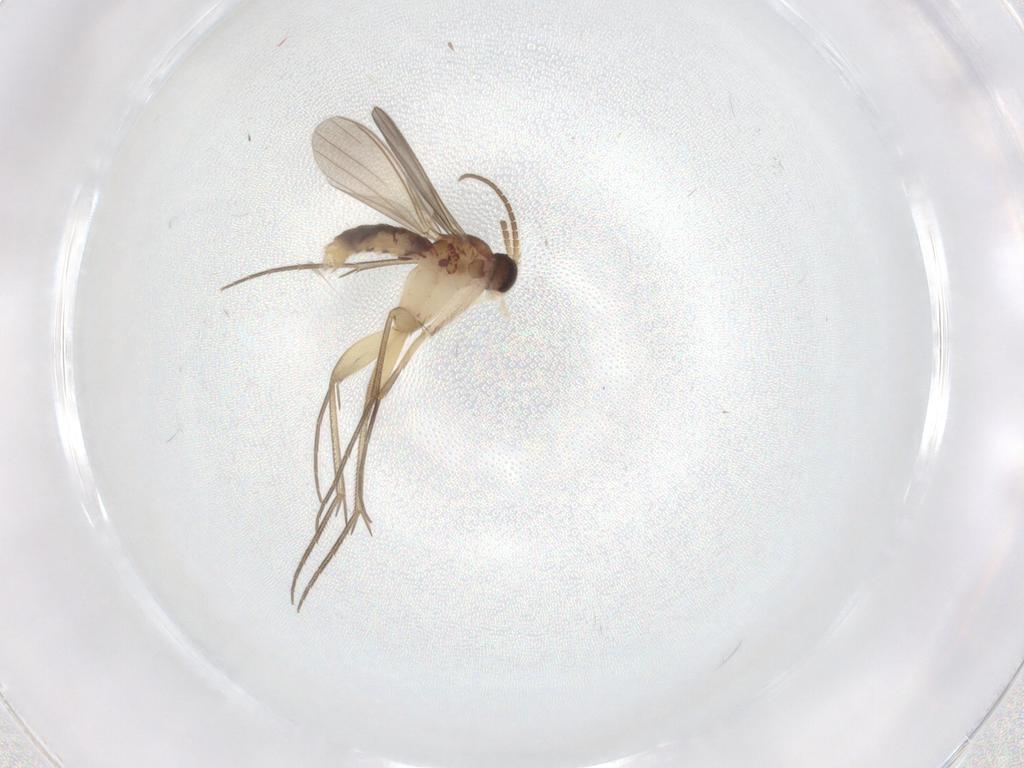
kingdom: Animalia
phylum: Arthropoda
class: Insecta
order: Diptera
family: Mycetophilidae
